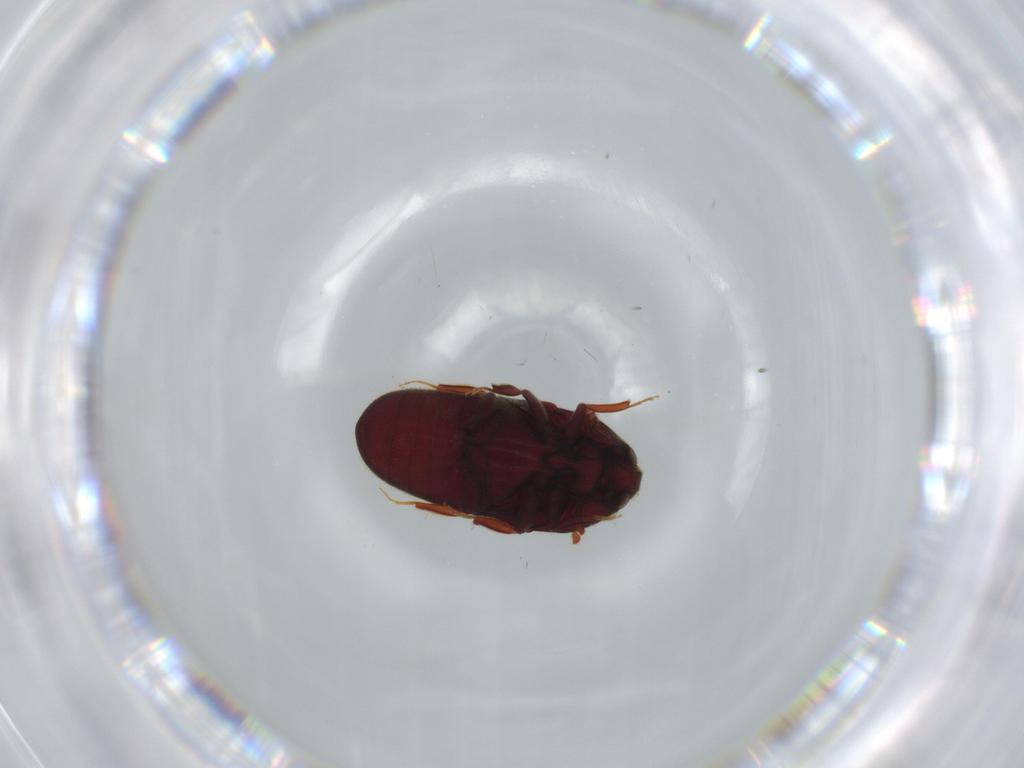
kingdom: Animalia
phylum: Arthropoda
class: Insecta
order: Coleoptera
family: Throscidae
